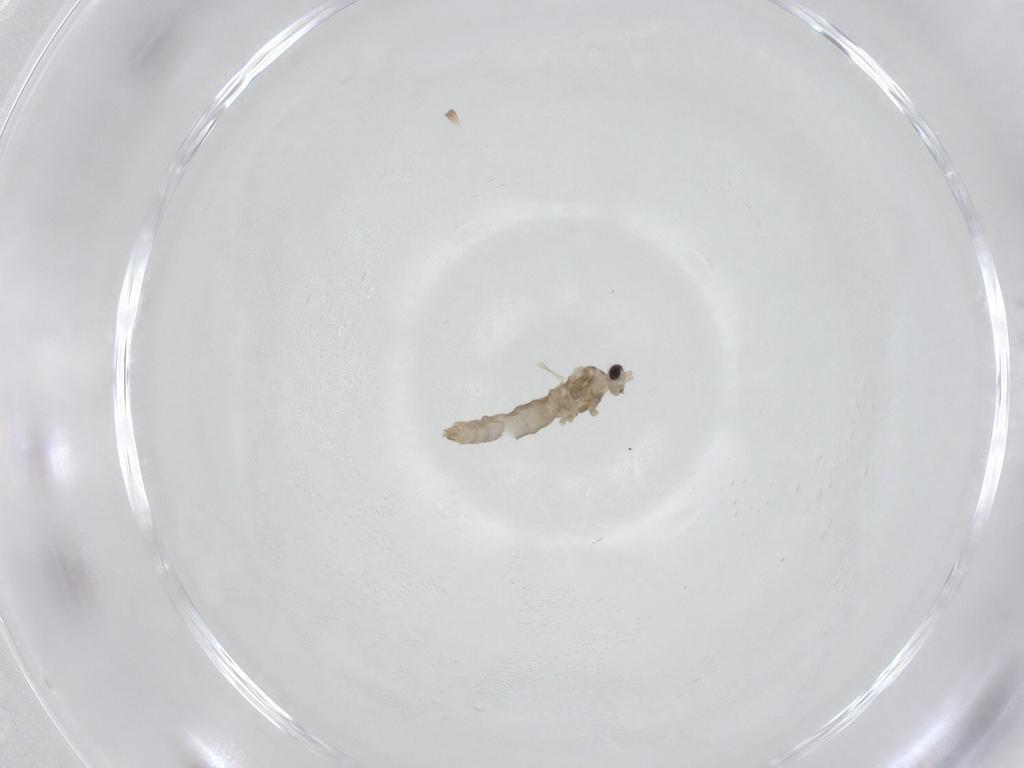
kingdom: Animalia
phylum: Arthropoda
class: Insecta
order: Diptera
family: Cecidomyiidae
